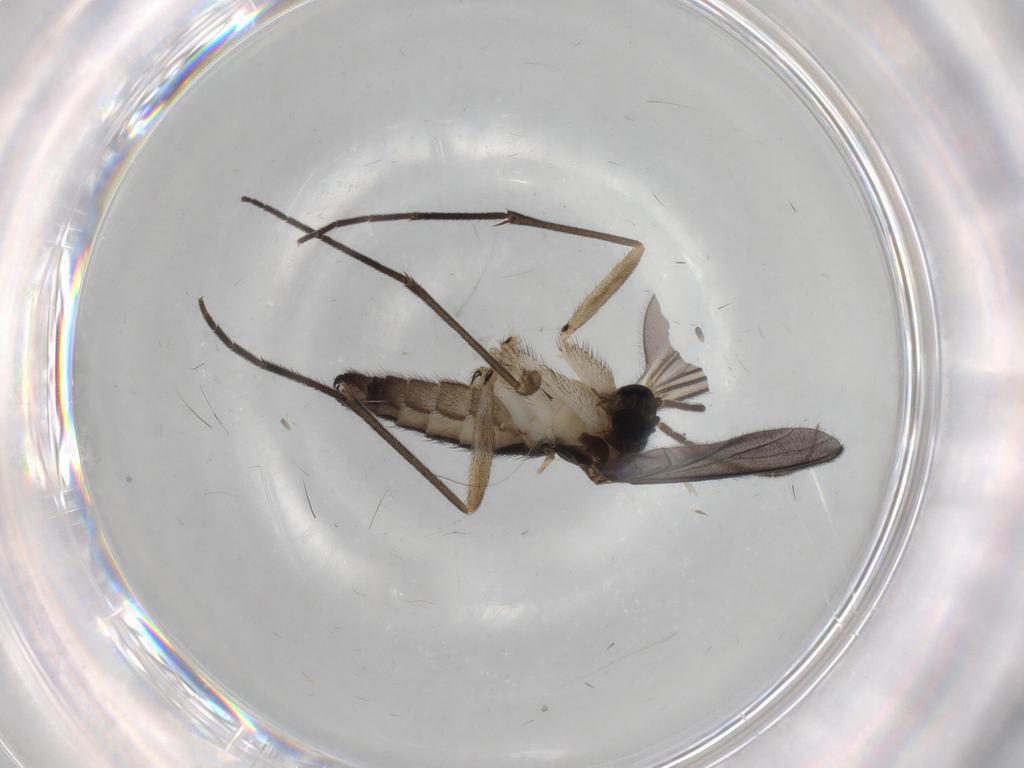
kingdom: Animalia
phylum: Arthropoda
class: Insecta
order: Diptera
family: Sciaridae
